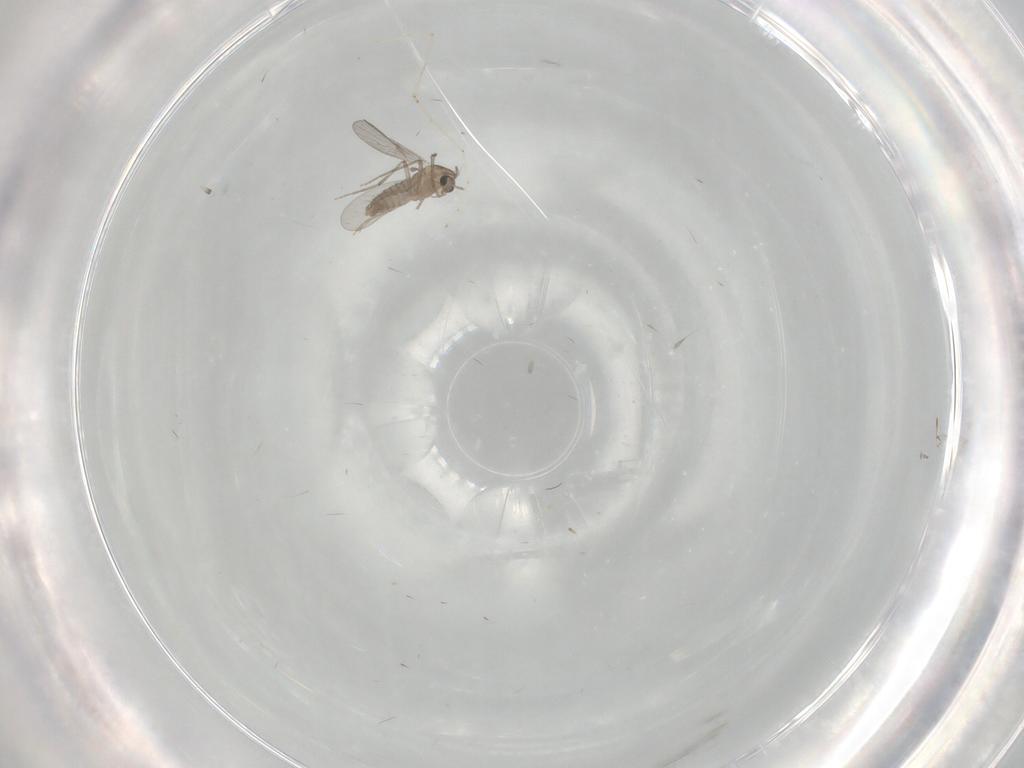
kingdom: Animalia
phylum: Arthropoda
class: Insecta
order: Diptera
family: Chironomidae
